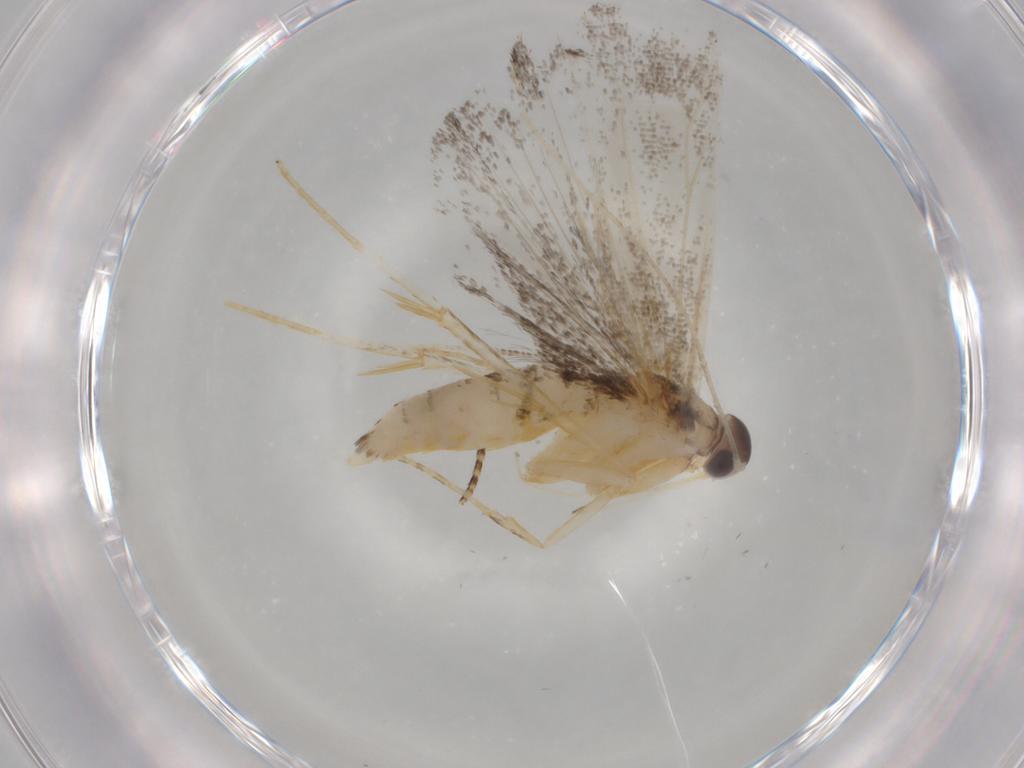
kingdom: Animalia
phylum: Arthropoda
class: Insecta
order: Lepidoptera
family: Cosmopterigidae
